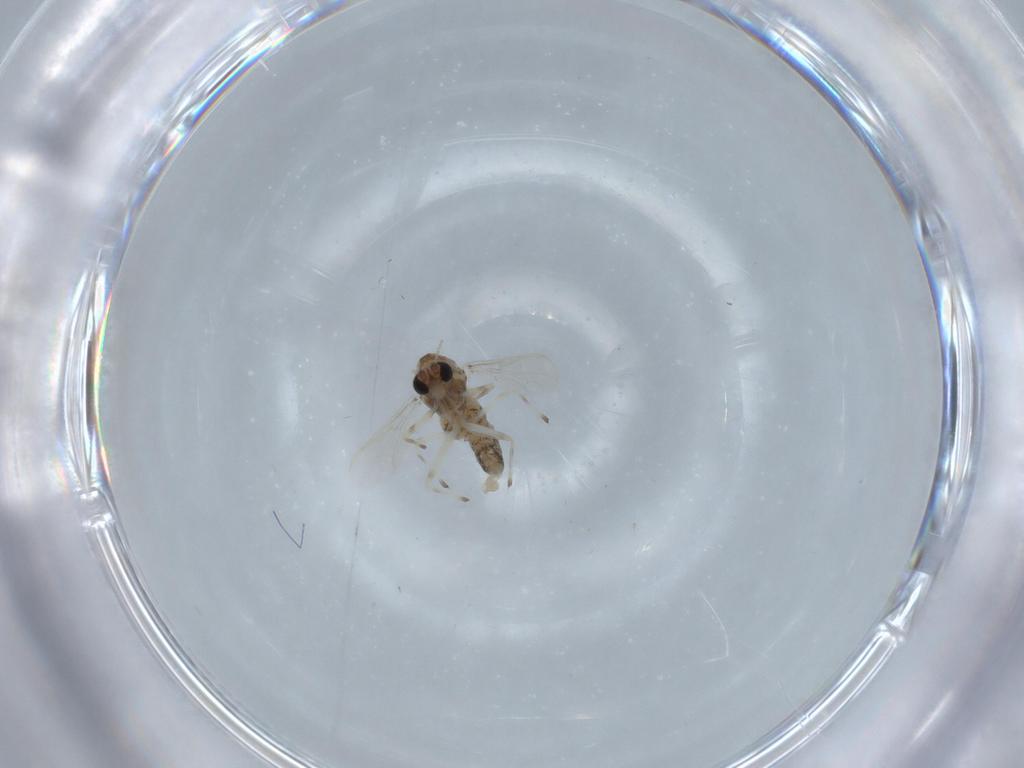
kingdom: Animalia
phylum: Arthropoda
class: Insecta
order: Diptera
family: Chironomidae
